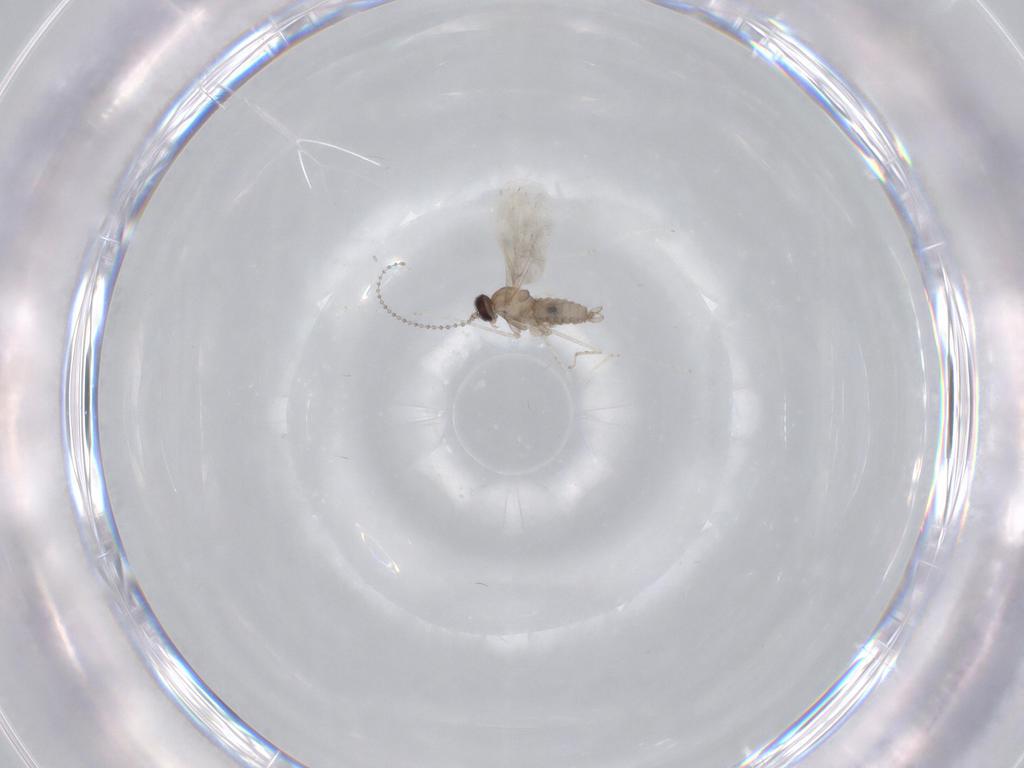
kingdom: Animalia
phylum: Arthropoda
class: Insecta
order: Diptera
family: Cecidomyiidae
